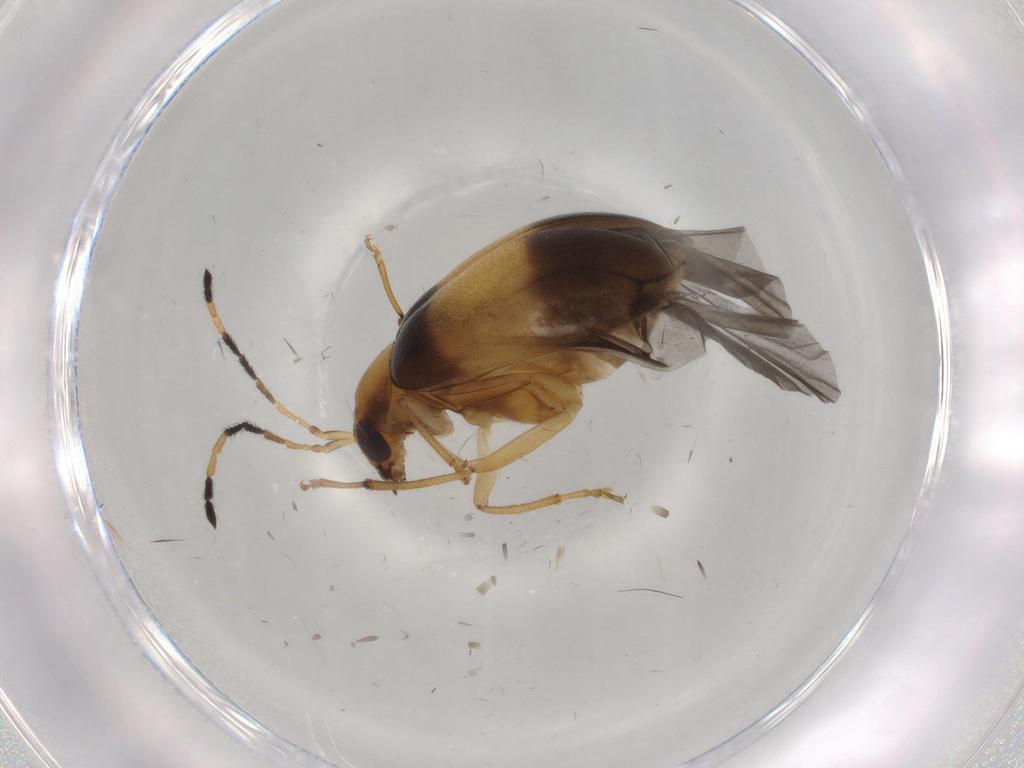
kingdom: Animalia
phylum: Arthropoda
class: Insecta
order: Coleoptera
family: Chrysomelidae
